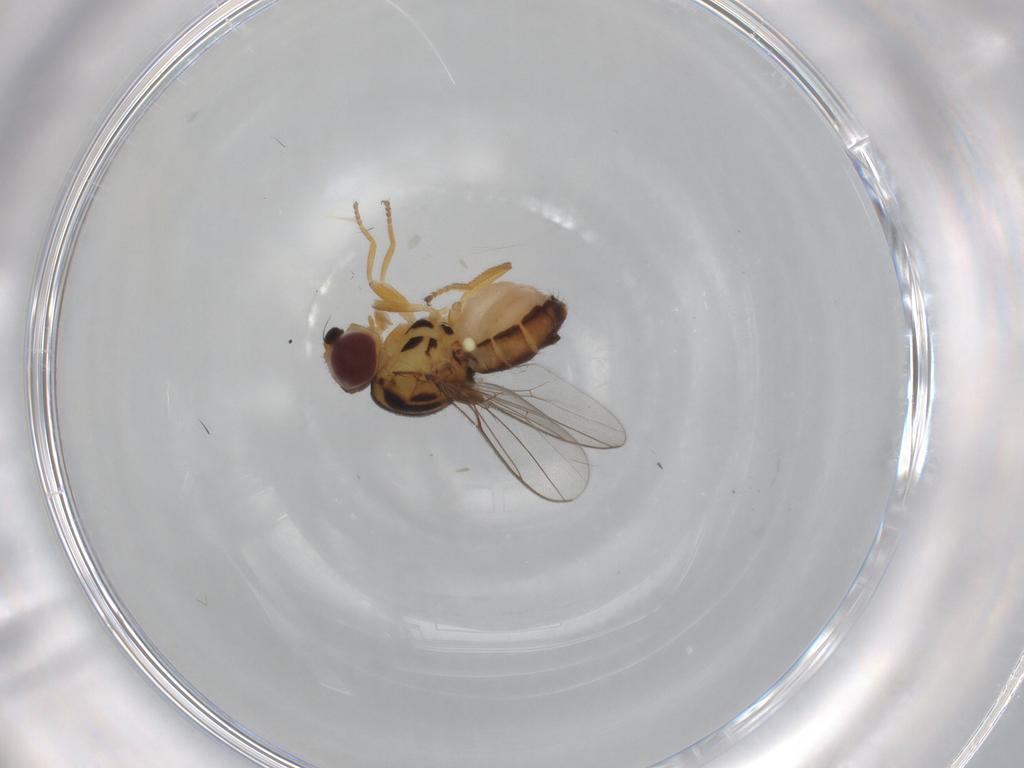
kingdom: Animalia
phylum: Arthropoda
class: Insecta
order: Diptera
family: Chloropidae
